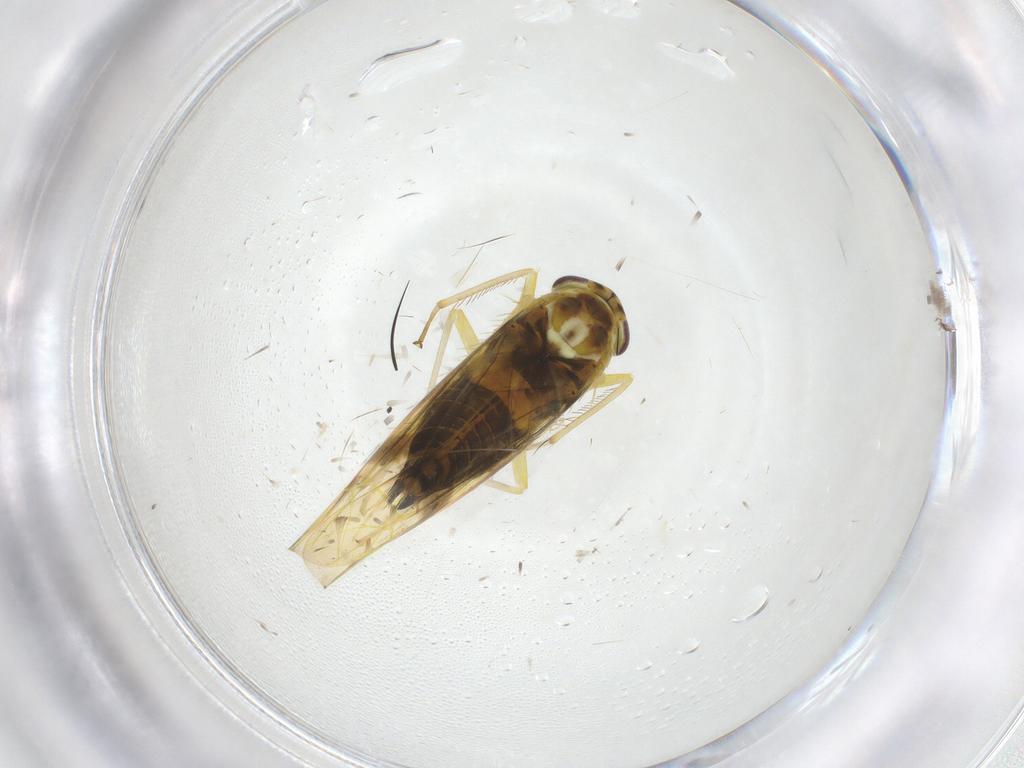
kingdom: Animalia
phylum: Arthropoda
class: Insecta
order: Hemiptera
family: Cicadellidae
